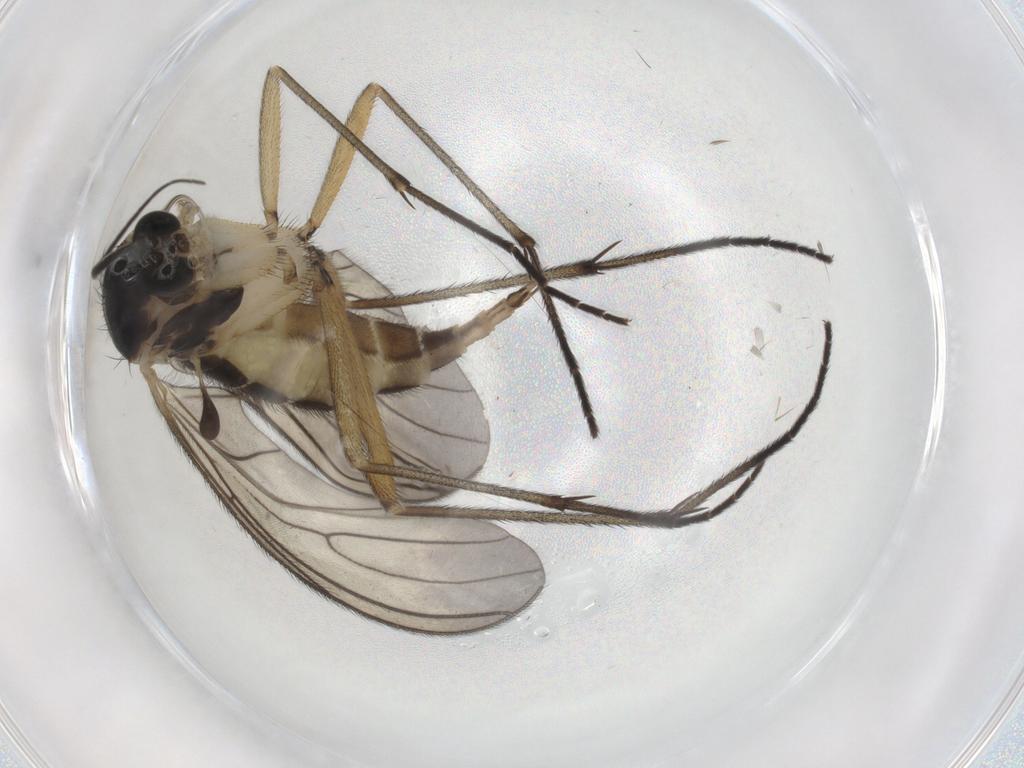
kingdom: Animalia
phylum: Arthropoda
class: Insecta
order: Diptera
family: Sciaridae
